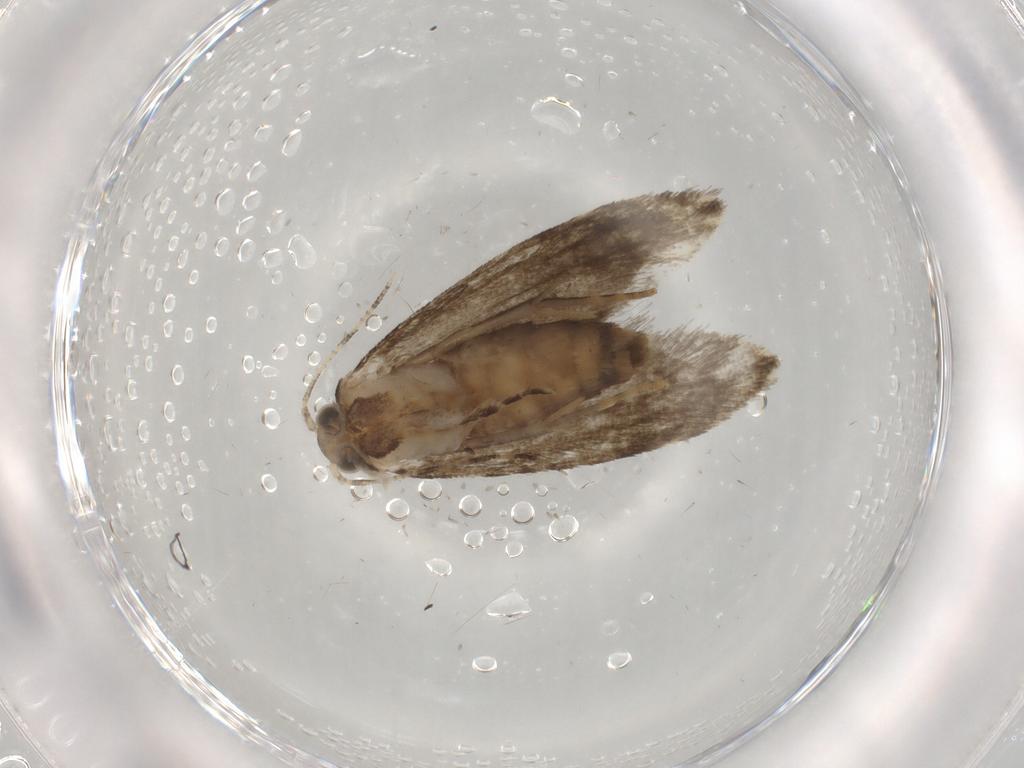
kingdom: Animalia
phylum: Arthropoda
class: Insecta
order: Lepidoptera
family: Tineidae
